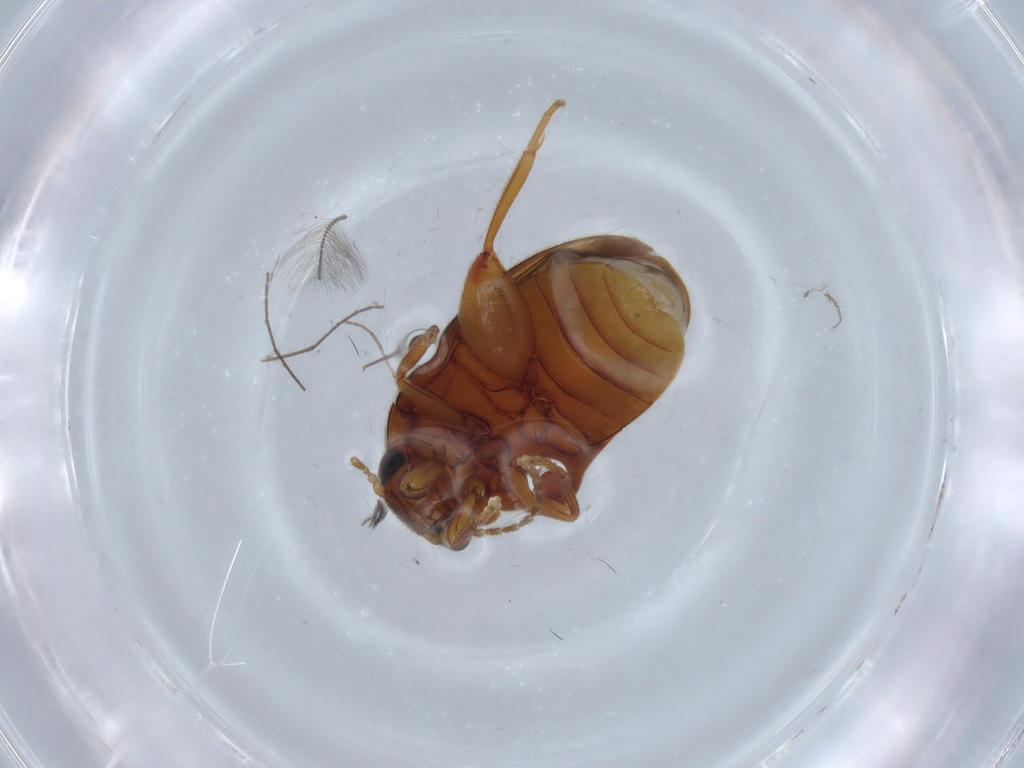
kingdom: Animalia
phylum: Arthropoda
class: Insecta
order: Coleoptera
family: Scirtidae
